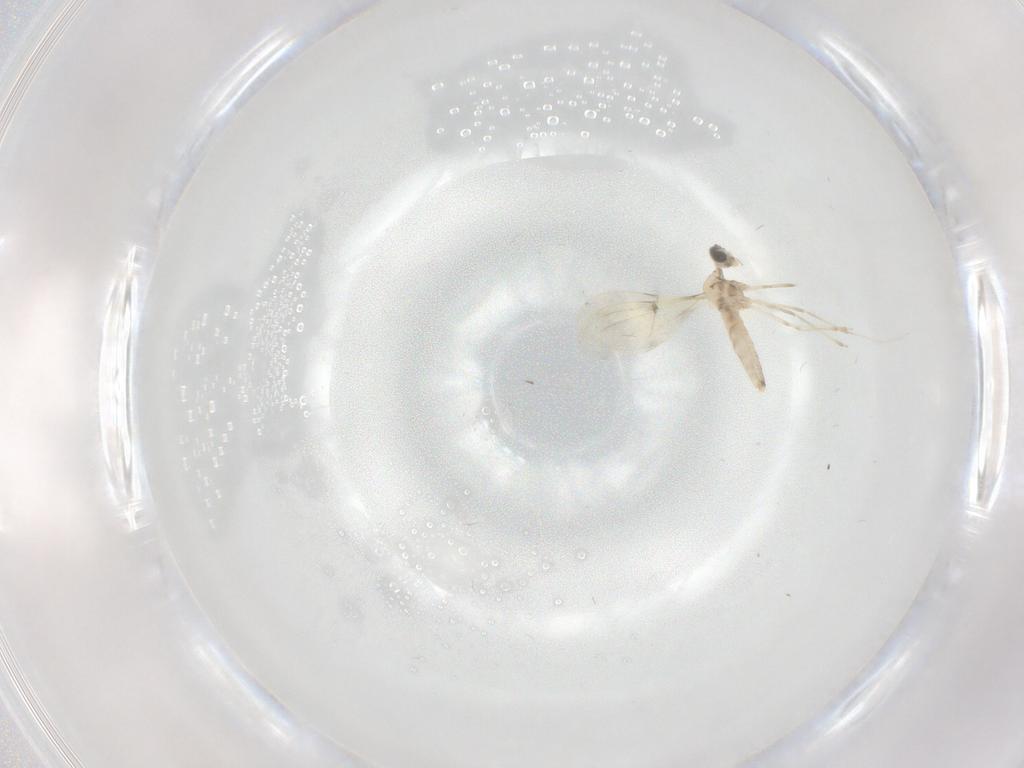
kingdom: Animalia
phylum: Arthropoda
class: Insecta
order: Diptera
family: Cecidomyiidae
